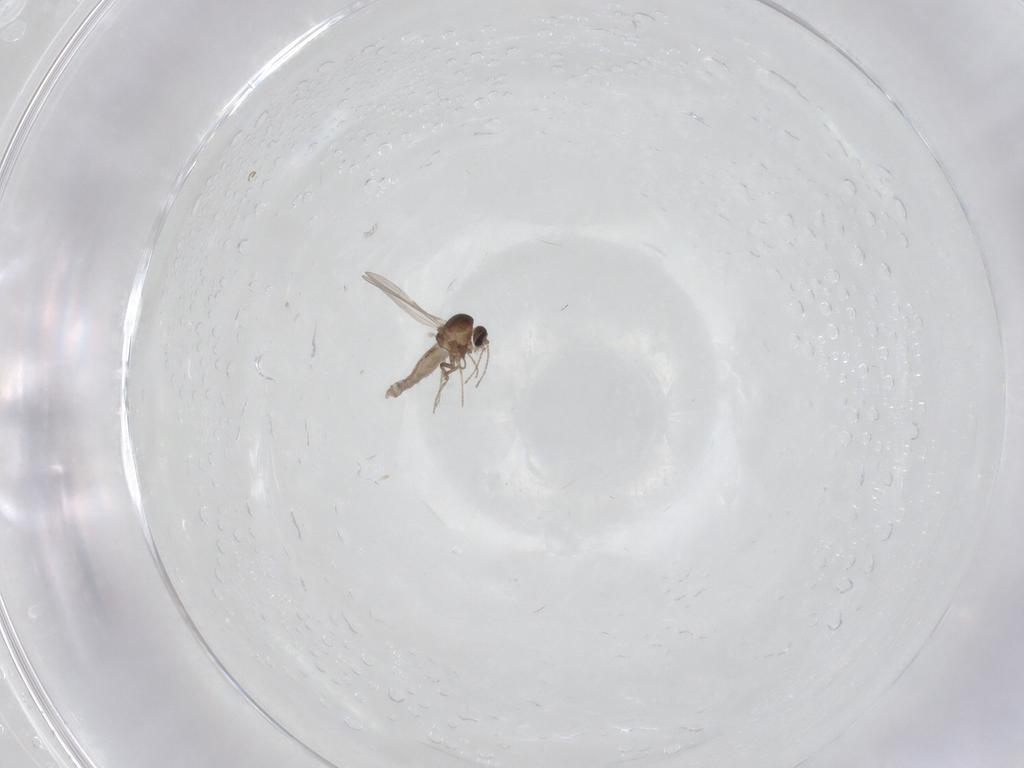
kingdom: Animalia
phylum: Arthropoda
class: Insecta
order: Diptera
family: Ceratopogonidae
